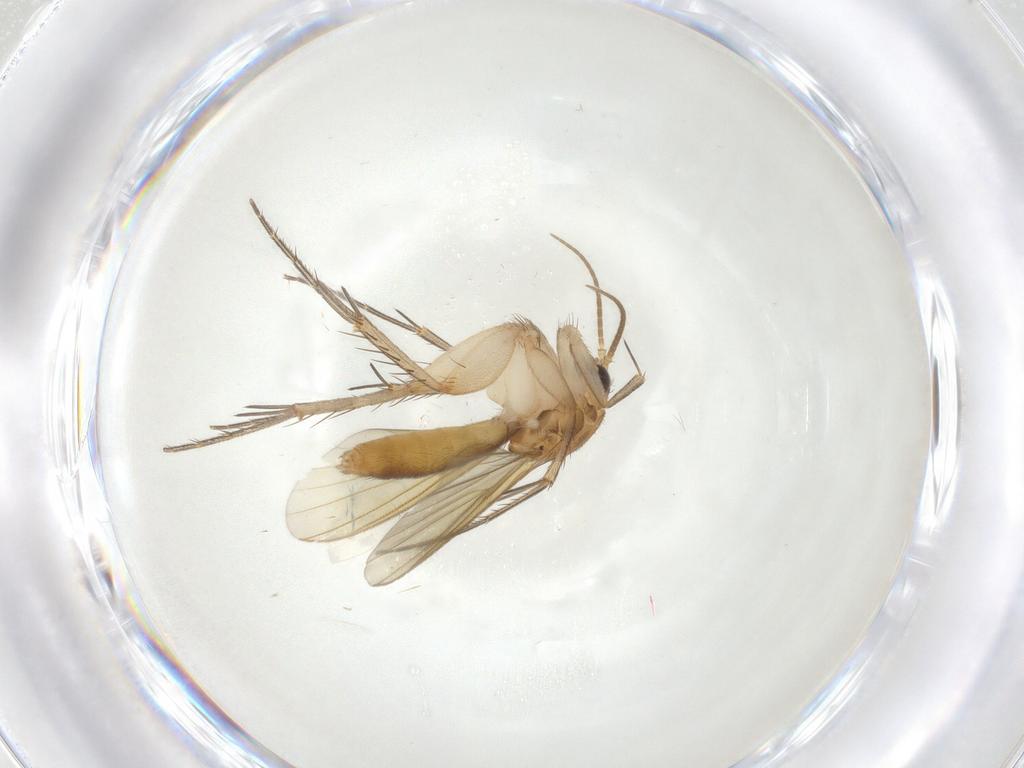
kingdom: Animalia
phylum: Arthropoda
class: Insecta
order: Diptera
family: Mycetophilidae
